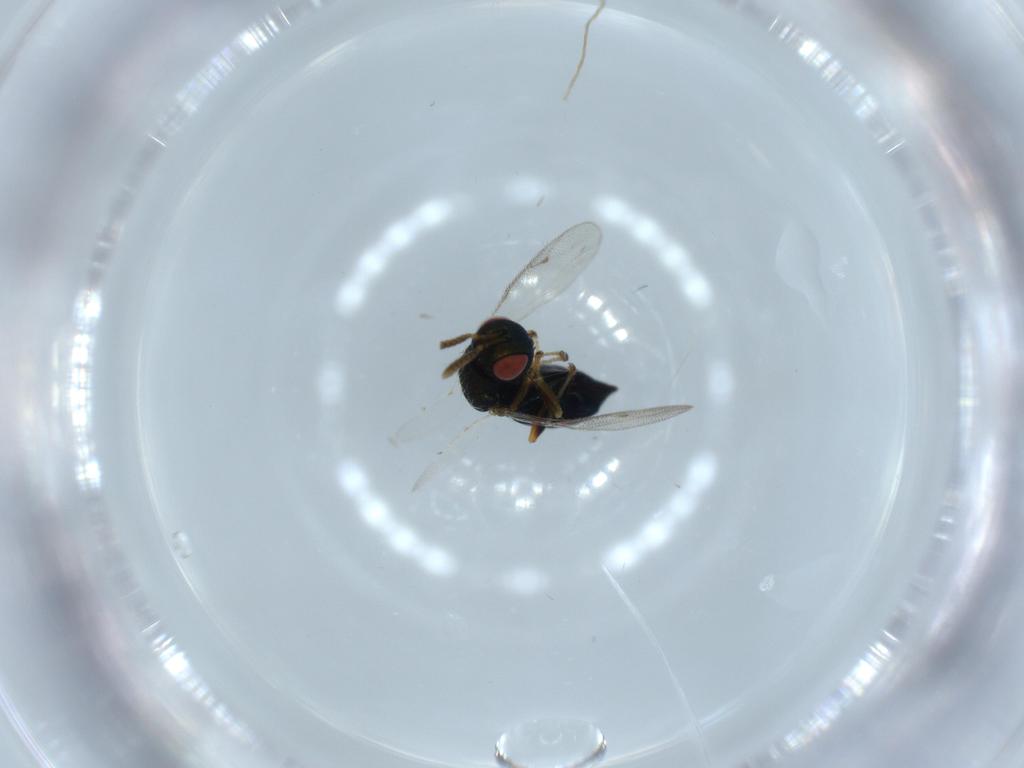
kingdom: Animalia
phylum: Arthropoda
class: Insecta
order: Hymenoptera
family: Pteromalidae
